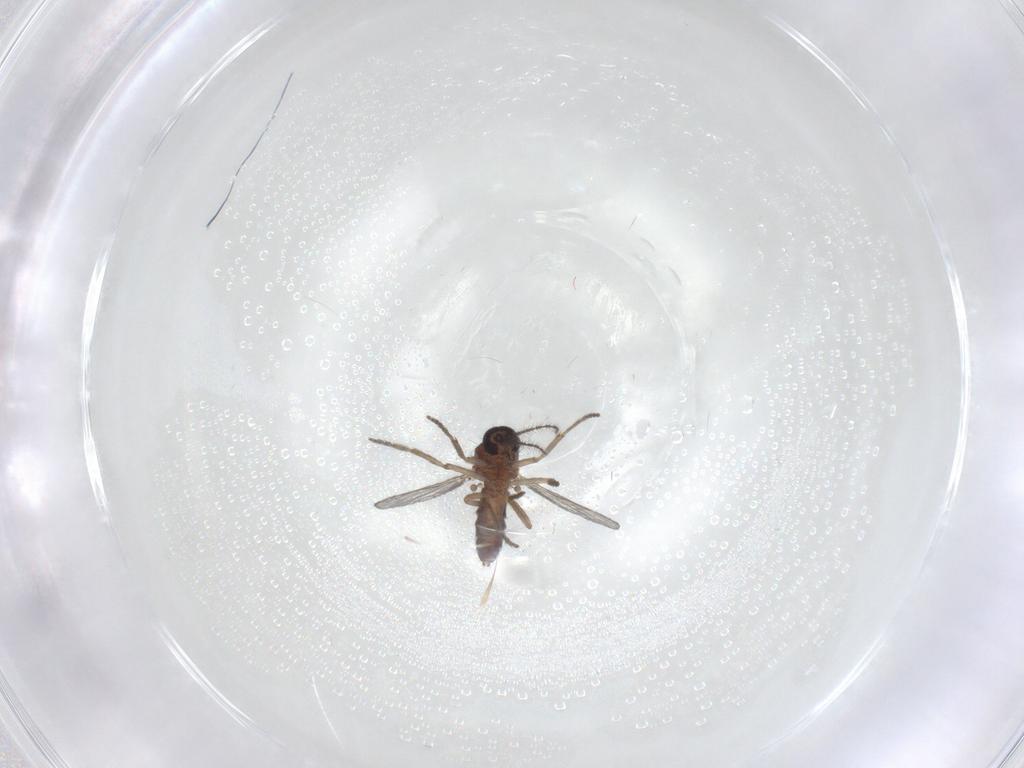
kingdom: Animalia
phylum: Arthropoda
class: Insecta
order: Diptera
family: Ceratopogonidae
